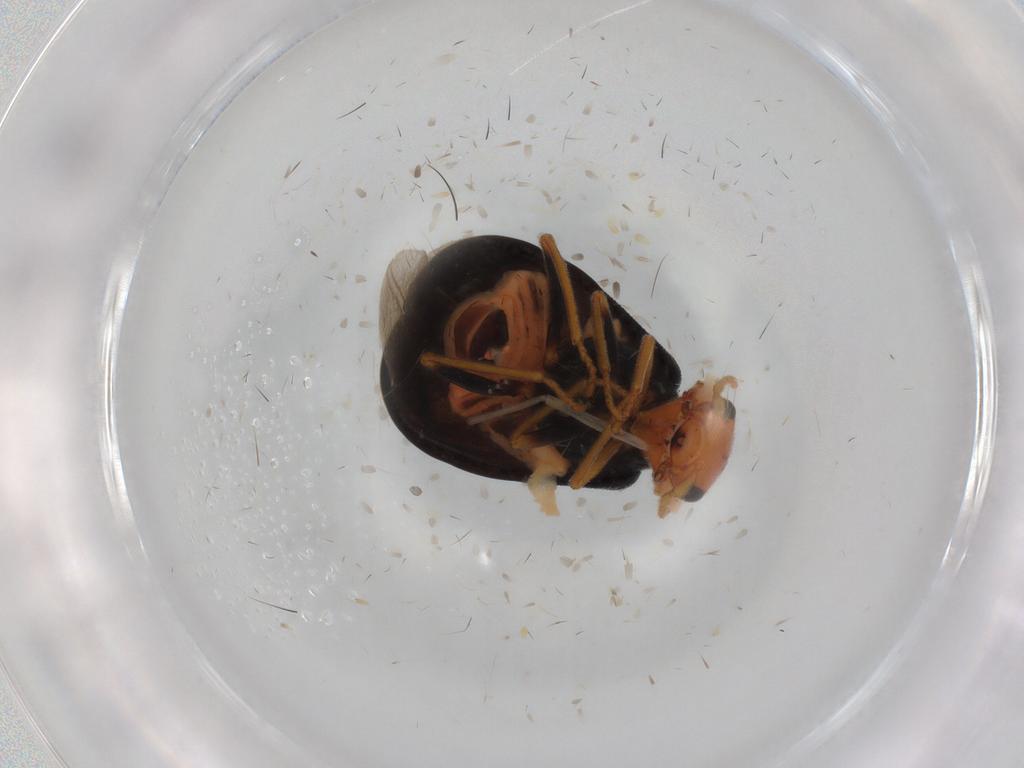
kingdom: Animalia
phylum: Arthropoda
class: Insecta
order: Coleoptera
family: Melyridae
